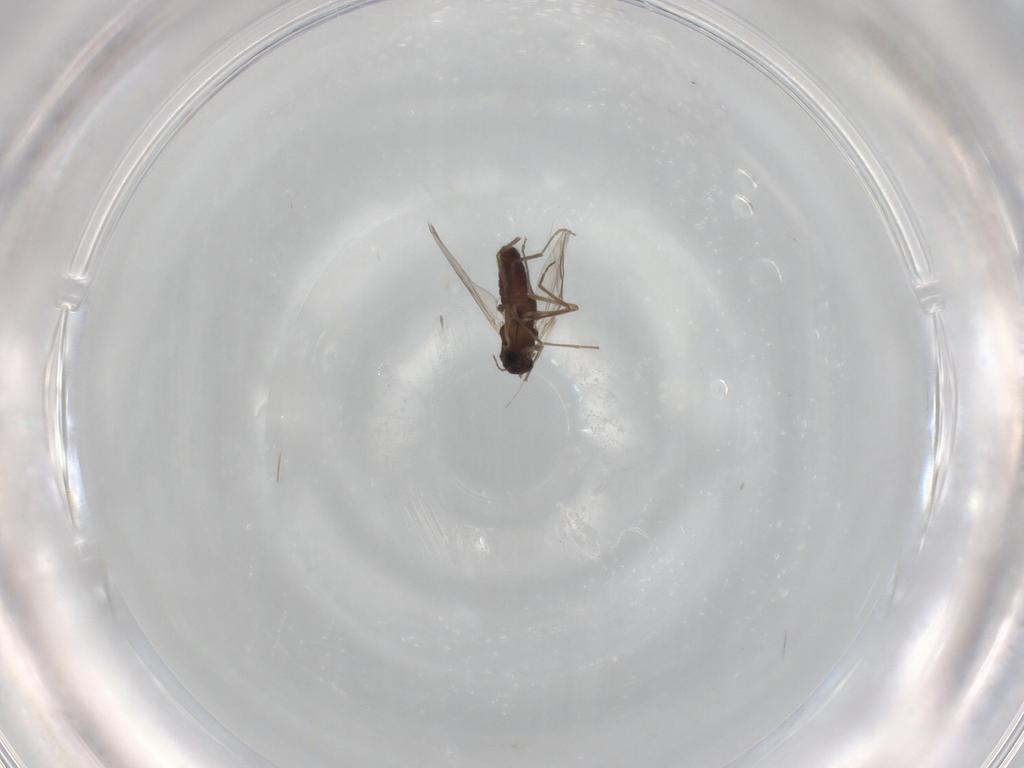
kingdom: Animalia
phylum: Arthropoda
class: Insecta
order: Diptera
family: Chironomidae
